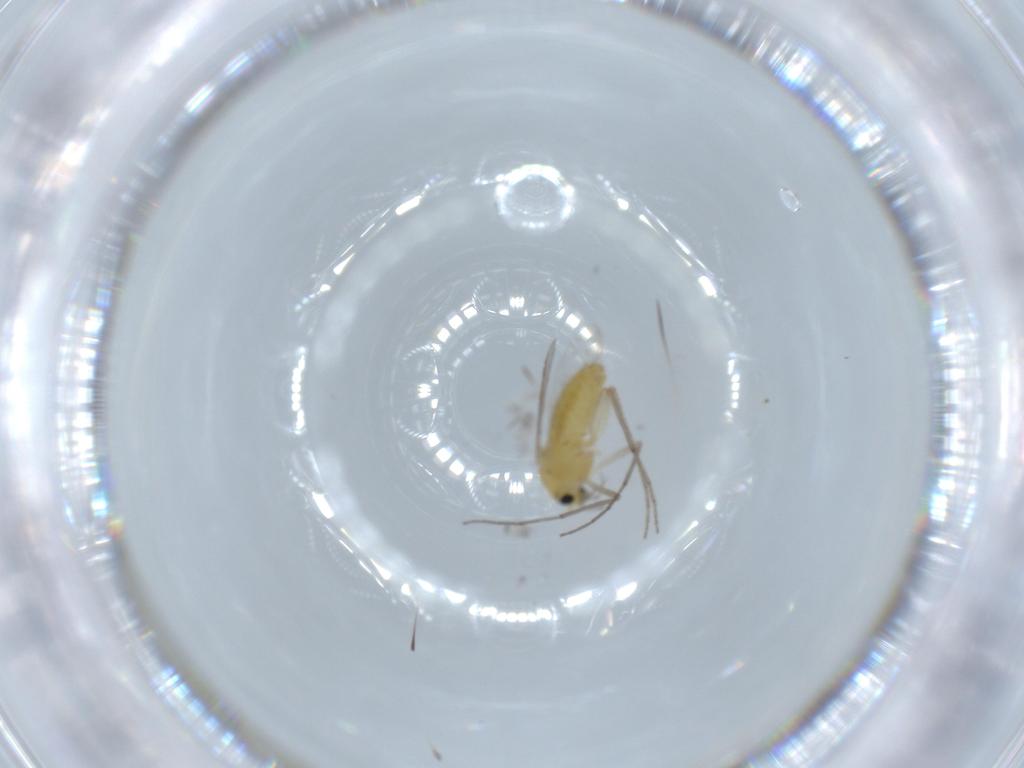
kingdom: Animalia
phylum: Arthropoda
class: Insecta
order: Diptera
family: Chironomidae
